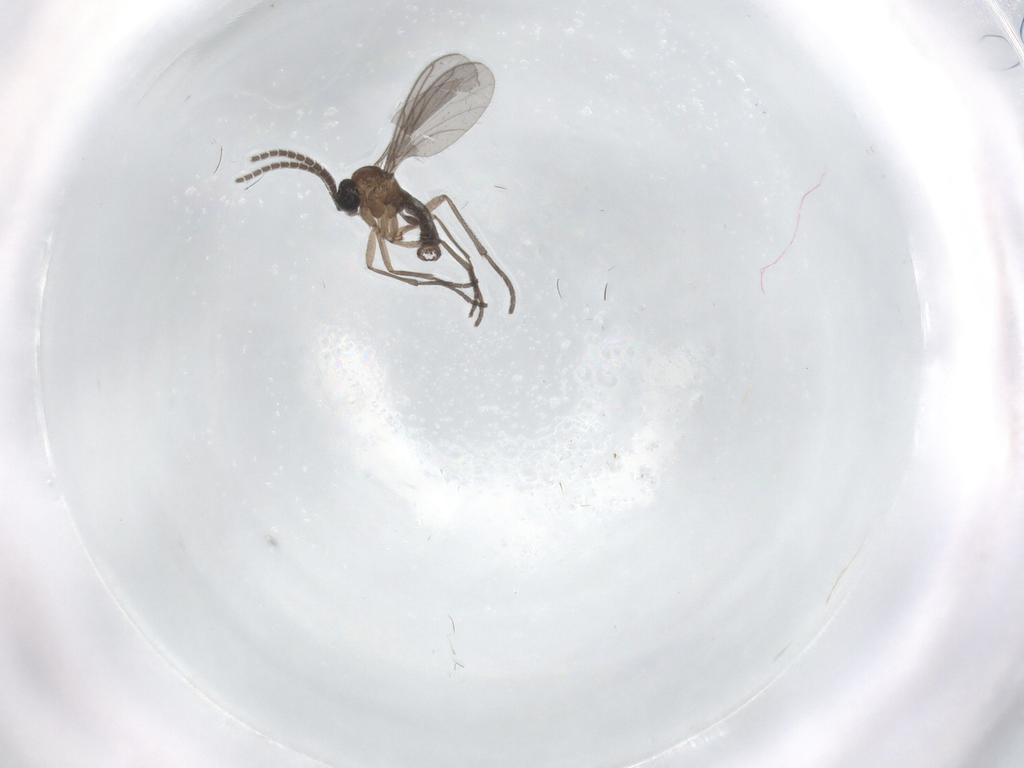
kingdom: Animalia
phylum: Arthropoda
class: Insecta
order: Diptera
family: Sciaridae
